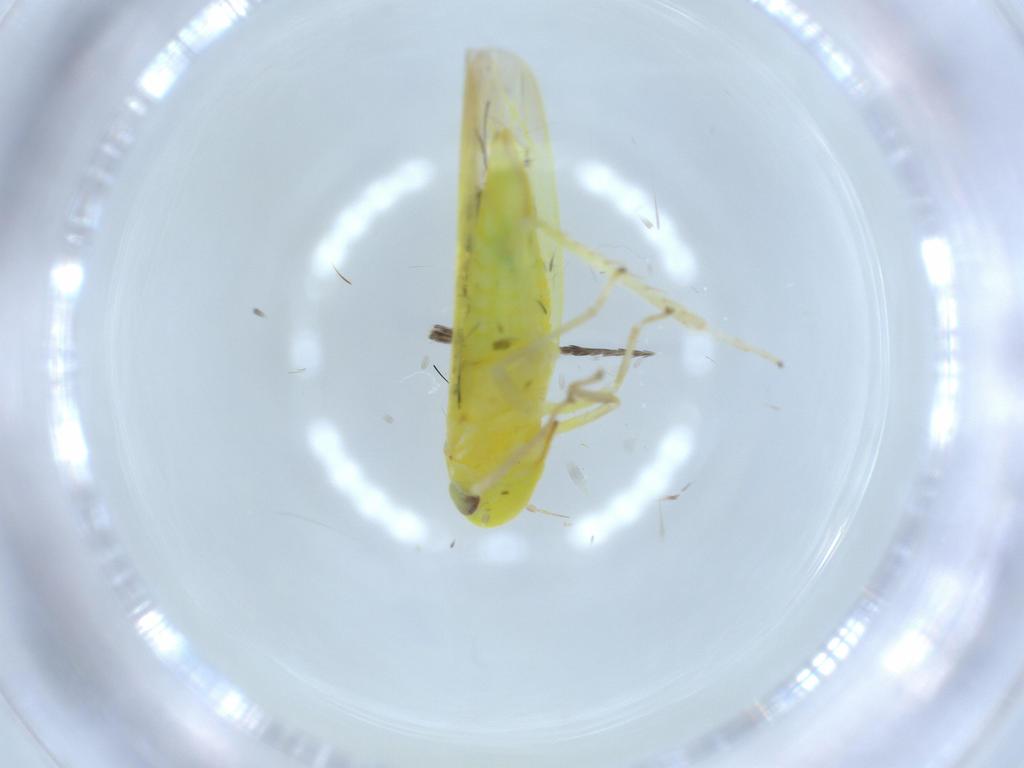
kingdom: Animalia
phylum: Arthropoda
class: Insecta
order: Hemiptera
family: Cicadellidae
